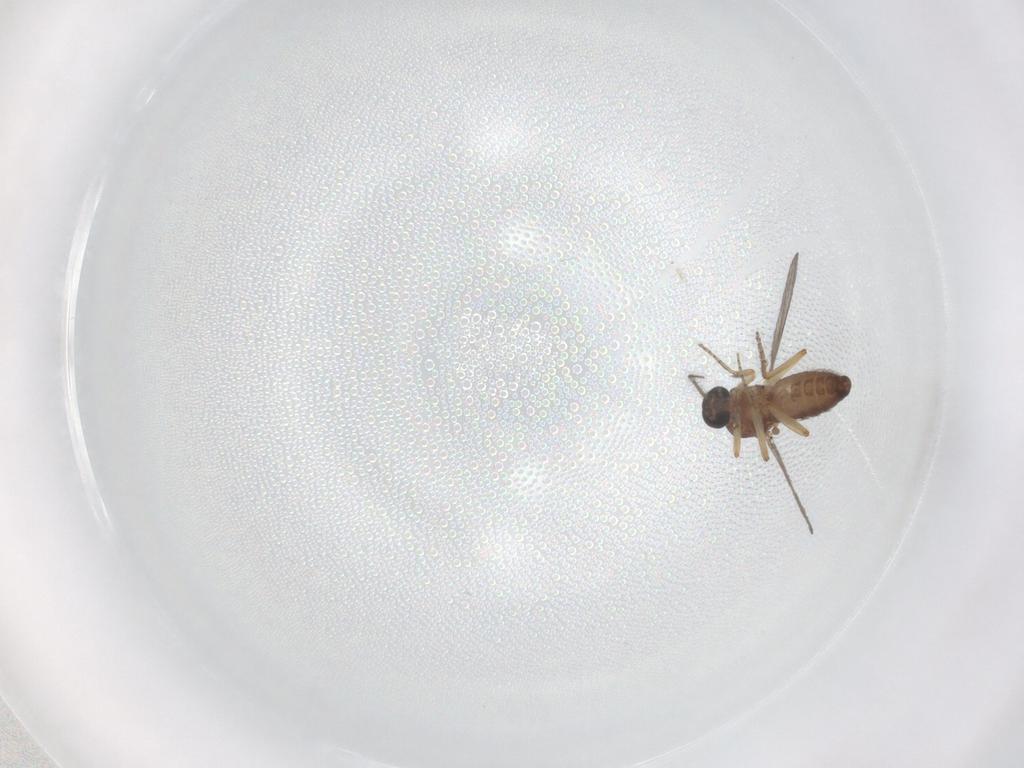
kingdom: Animalia
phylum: Arthropoda
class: Insecta
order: Diptera
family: Ceratopogonidae
